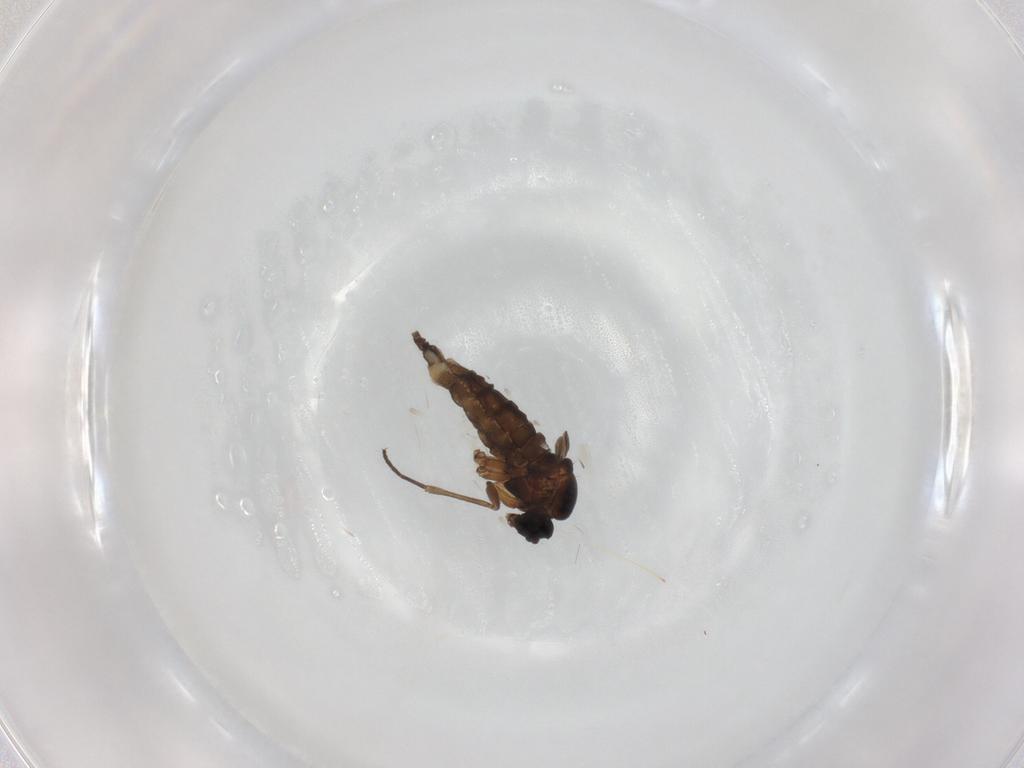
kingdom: Animalia
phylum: Arthropoda
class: Insecta
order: Diptera
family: Sciaridae
